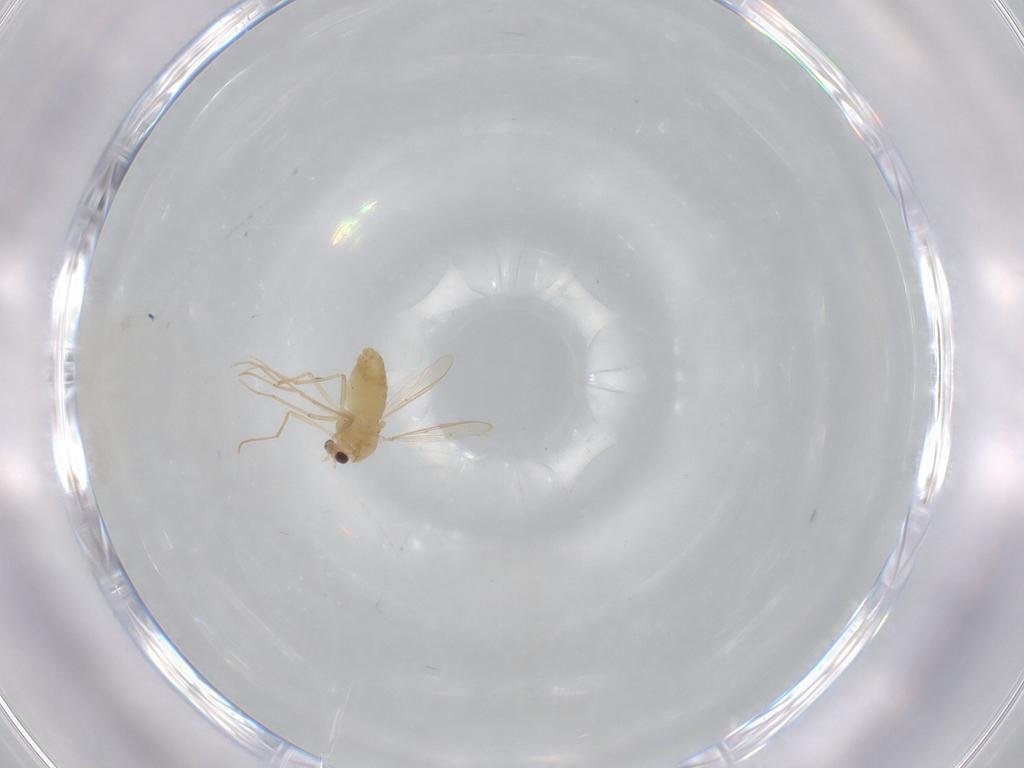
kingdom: Animalia
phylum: Arthropoda
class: Insecta
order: Diptera
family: Chironomidae
